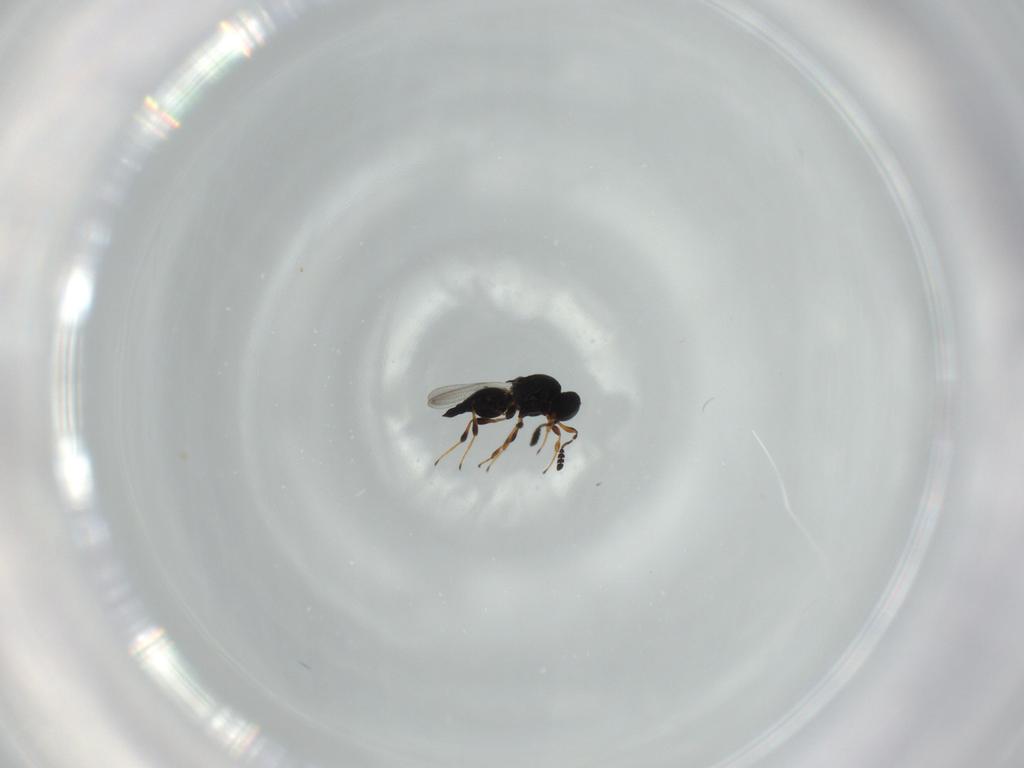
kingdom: Animalia
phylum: Arthropoda
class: Insecta
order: Hymenoptera
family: Platygastridae
